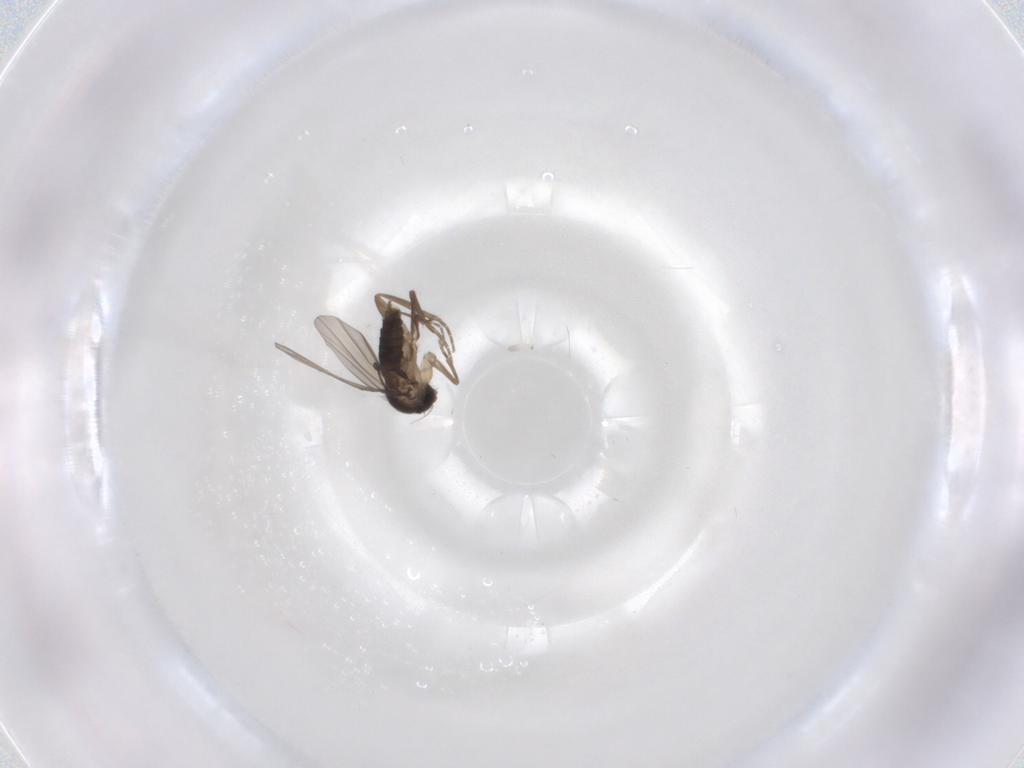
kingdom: Animalia
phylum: Arthropoda
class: Insecta
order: Diptera
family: Phoridae
